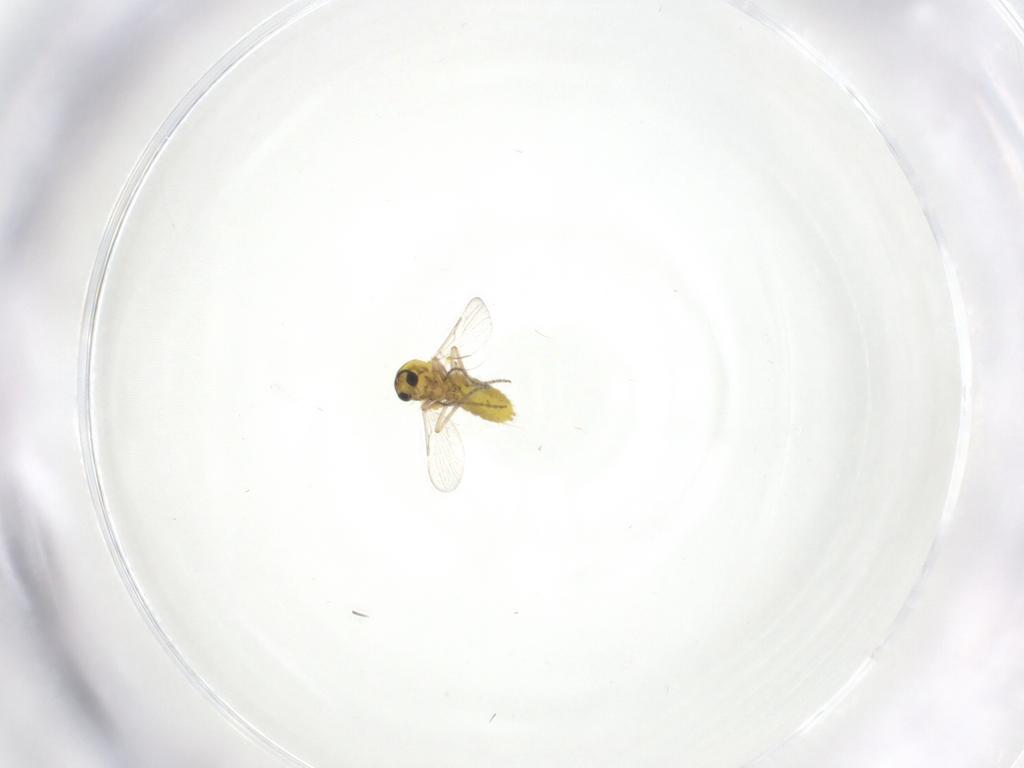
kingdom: Animalia
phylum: Arthropoda
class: Insecta
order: Diptera
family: Ceratopogonidae
